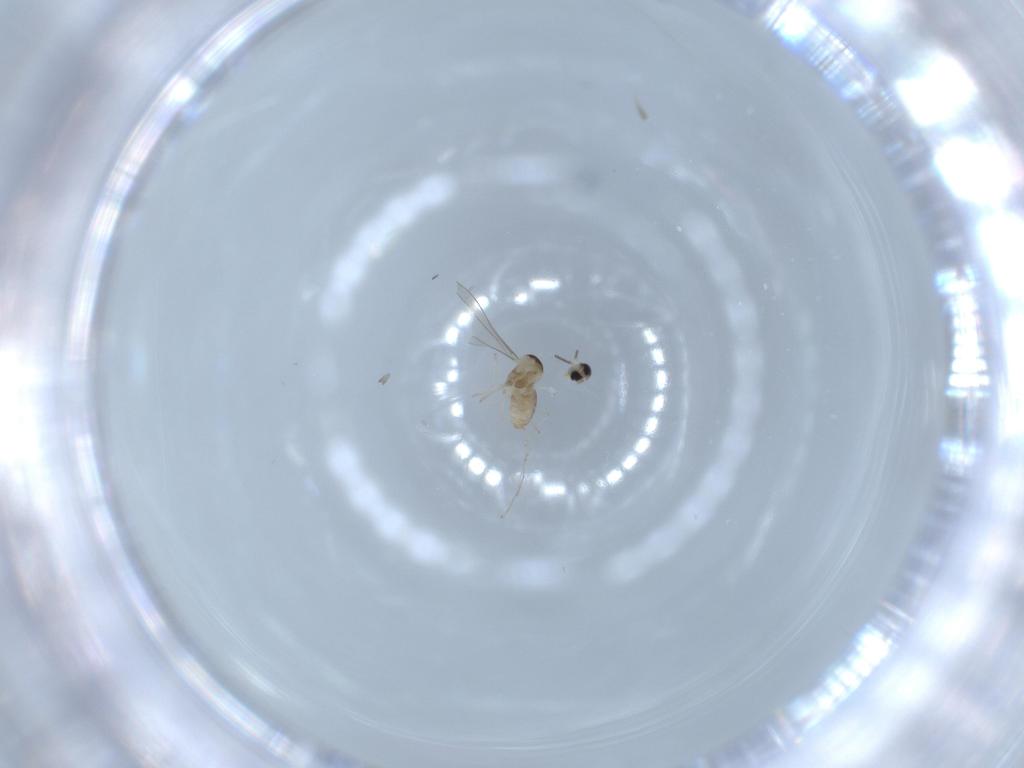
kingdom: Animalia
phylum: Arthropoda
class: Insecta
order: Diptera
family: Cecidomyiidae
